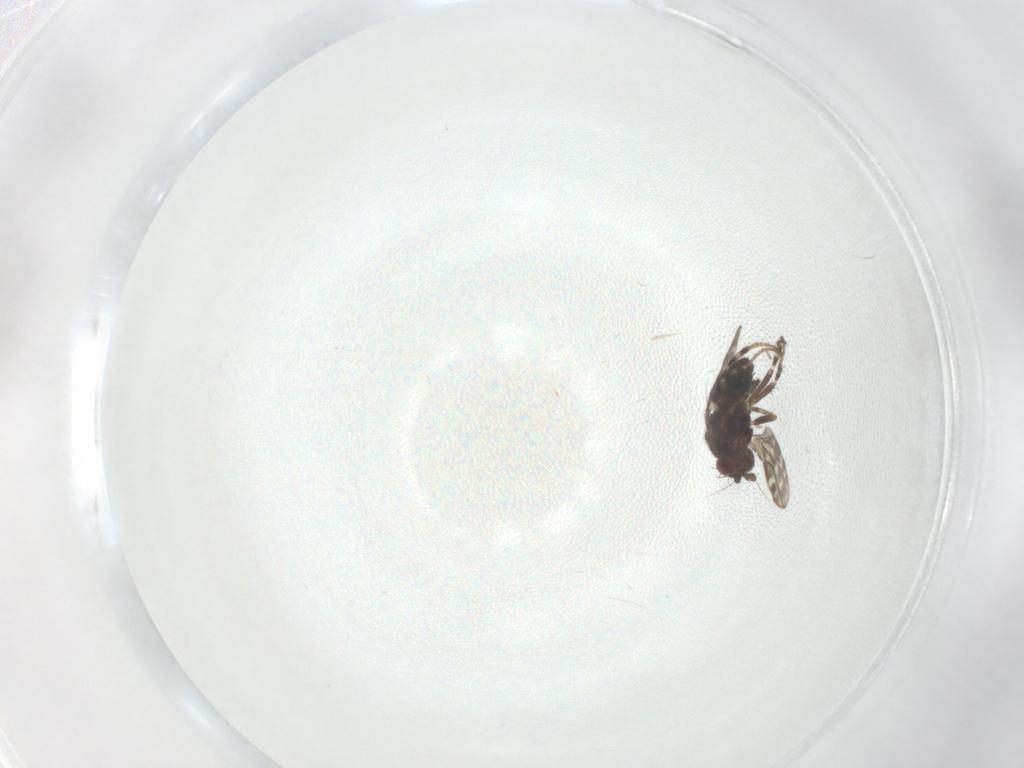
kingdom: Animalia
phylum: Arthropoda
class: Insecta
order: Diptera
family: Sphaeroceridae
